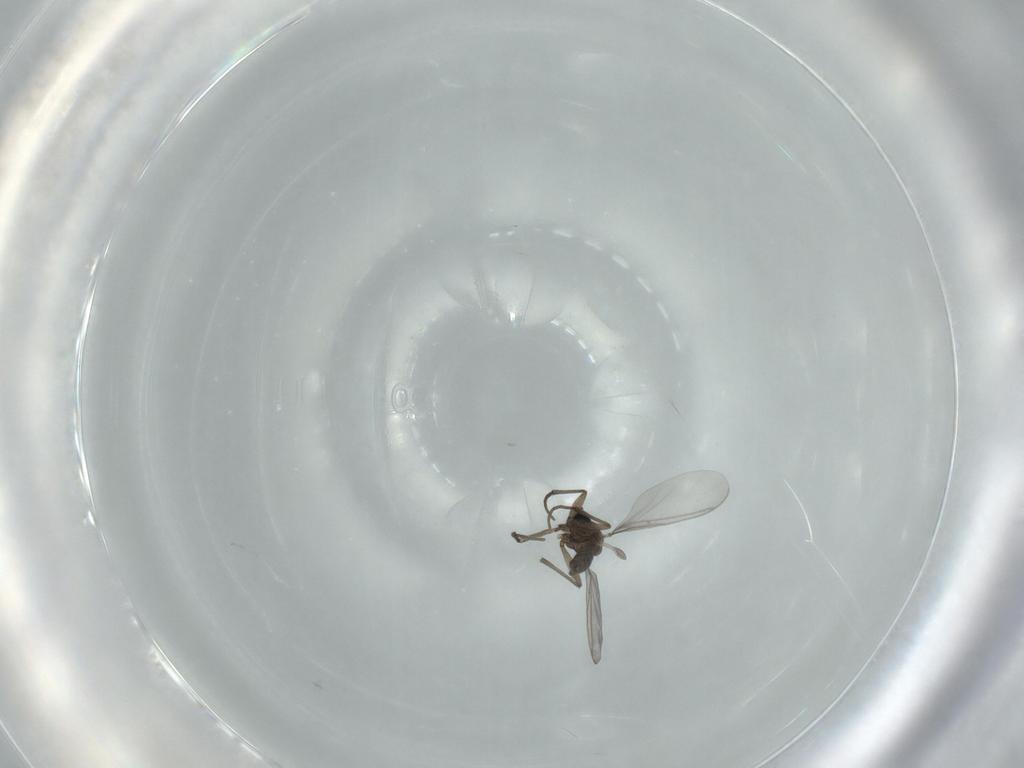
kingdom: Animalia
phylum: Arthropoda
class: Insecta
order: Diptera
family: Sciaridae
